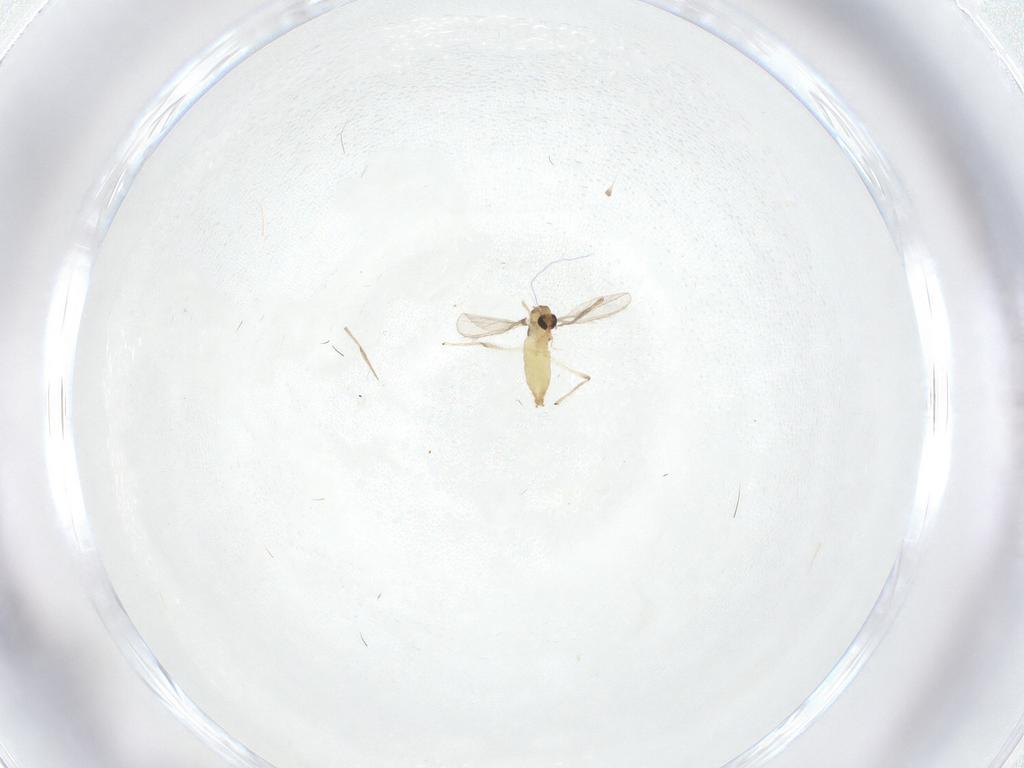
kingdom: Animalia
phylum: Arthropoda
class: Insecta
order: Diptera
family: Chironomidae
